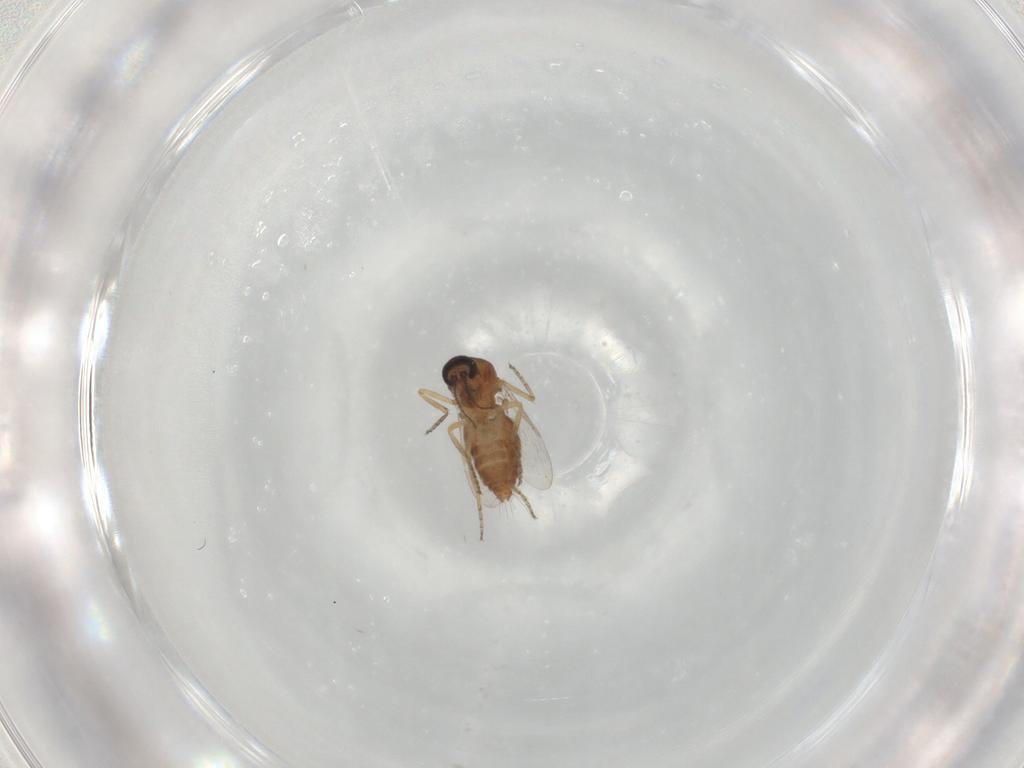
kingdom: Animalia
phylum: Arthropoda
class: Insecta
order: Diptera
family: Ceratopogonidae
